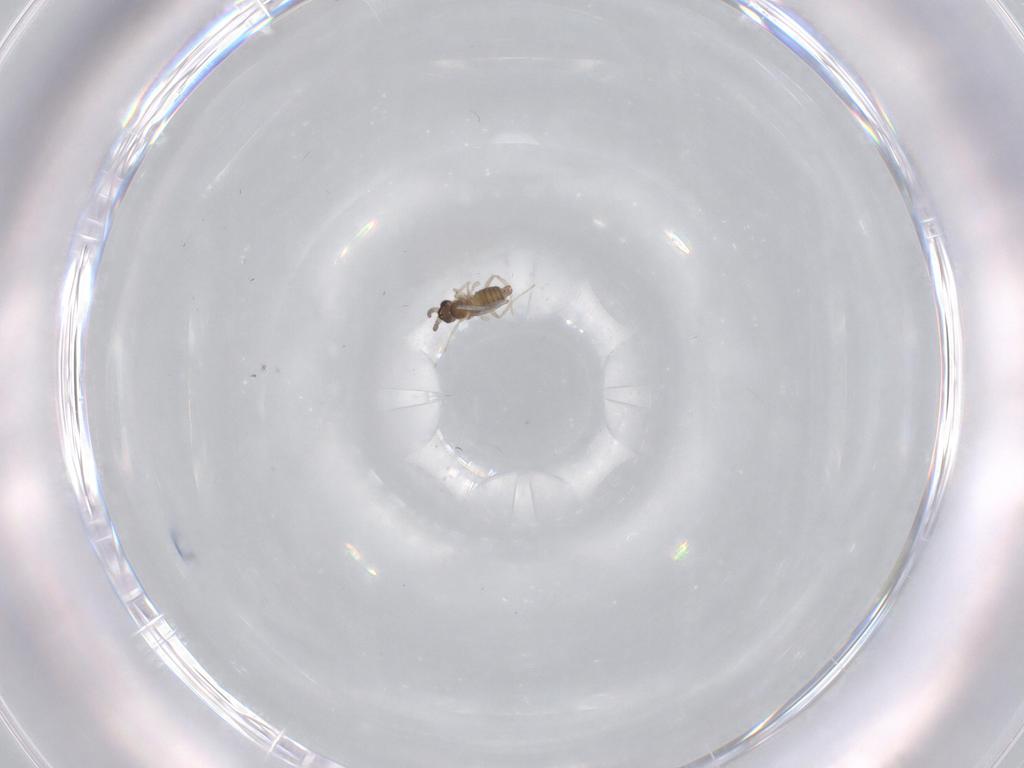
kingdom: Animalia
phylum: Arthropoda
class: Insecta
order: Diptera
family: Cecidomyiidae
